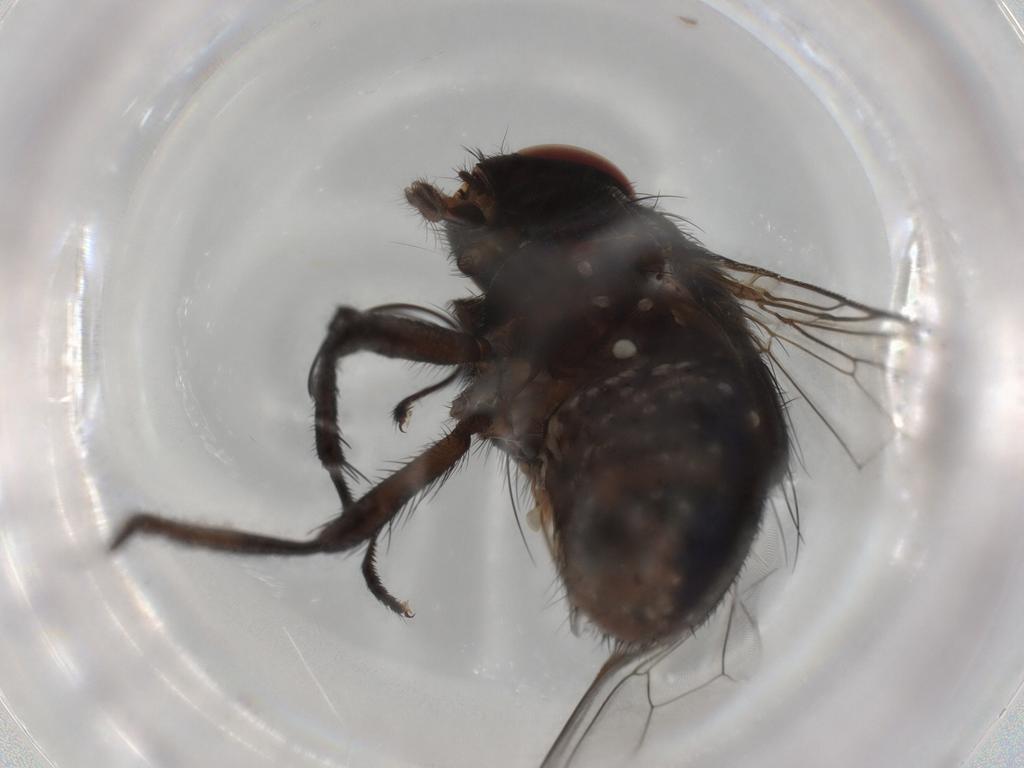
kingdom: Animalia
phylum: Arthropoda
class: Insecta
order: Diptera
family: Muscidae
